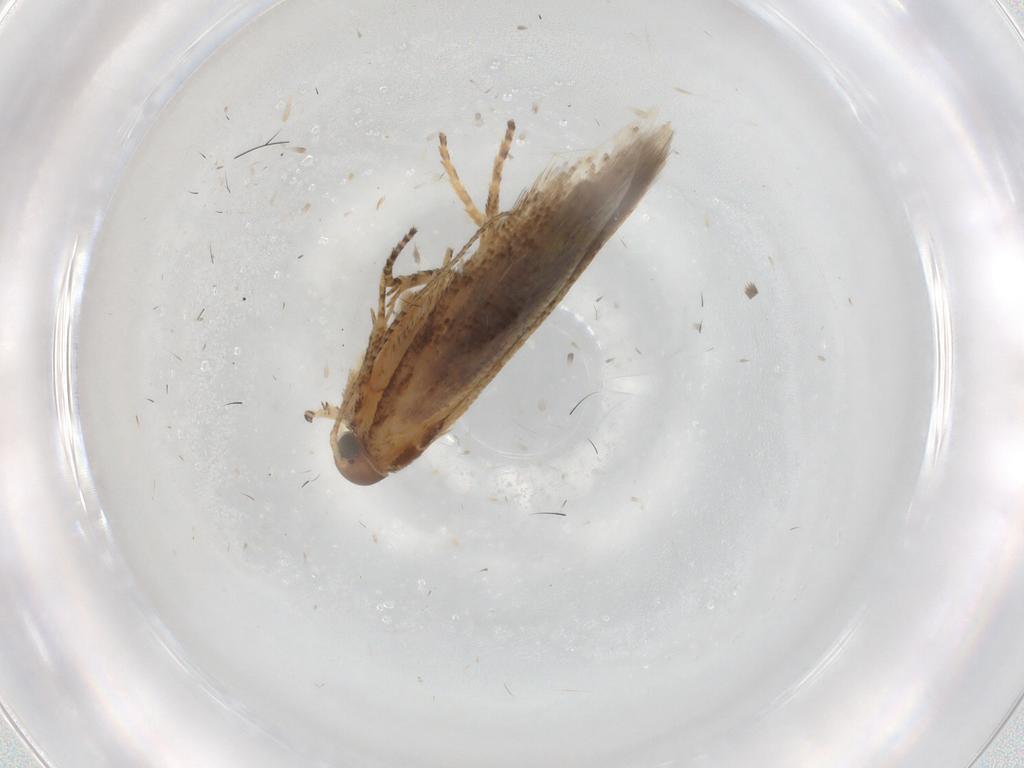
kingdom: Animalia
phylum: Arthropoda
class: Insecta
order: Lepidoptera
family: Gelechiidae
